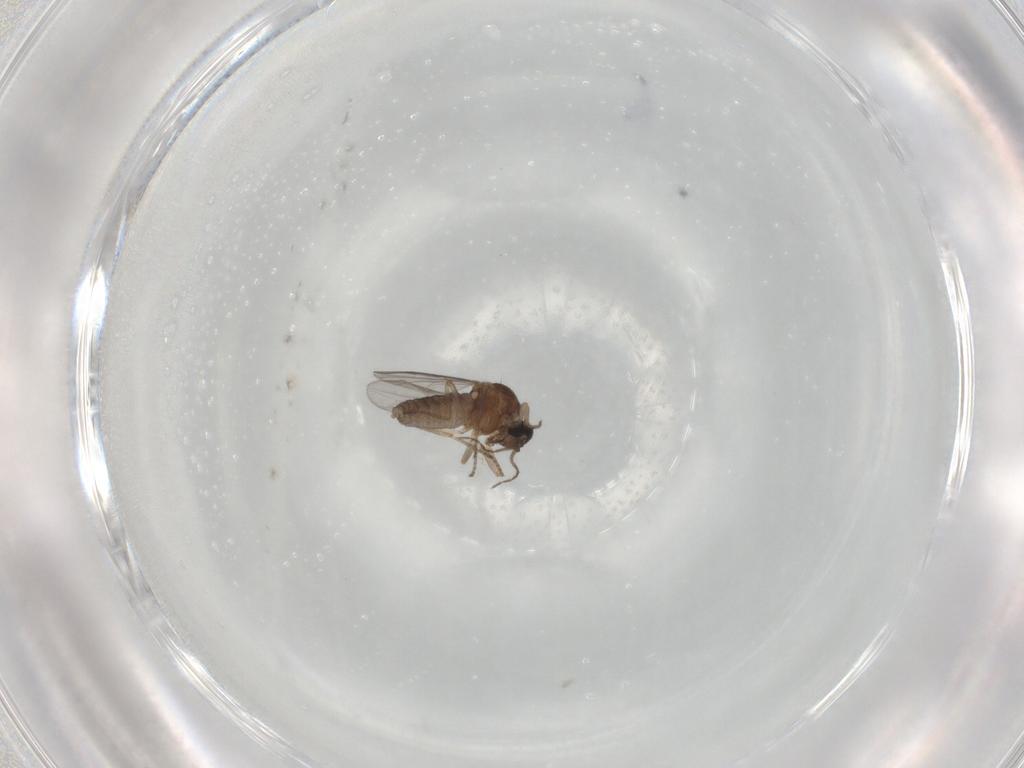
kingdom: Animalia
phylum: Arthropoda
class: Insecta
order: Diptera
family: Ceratopogonidae
